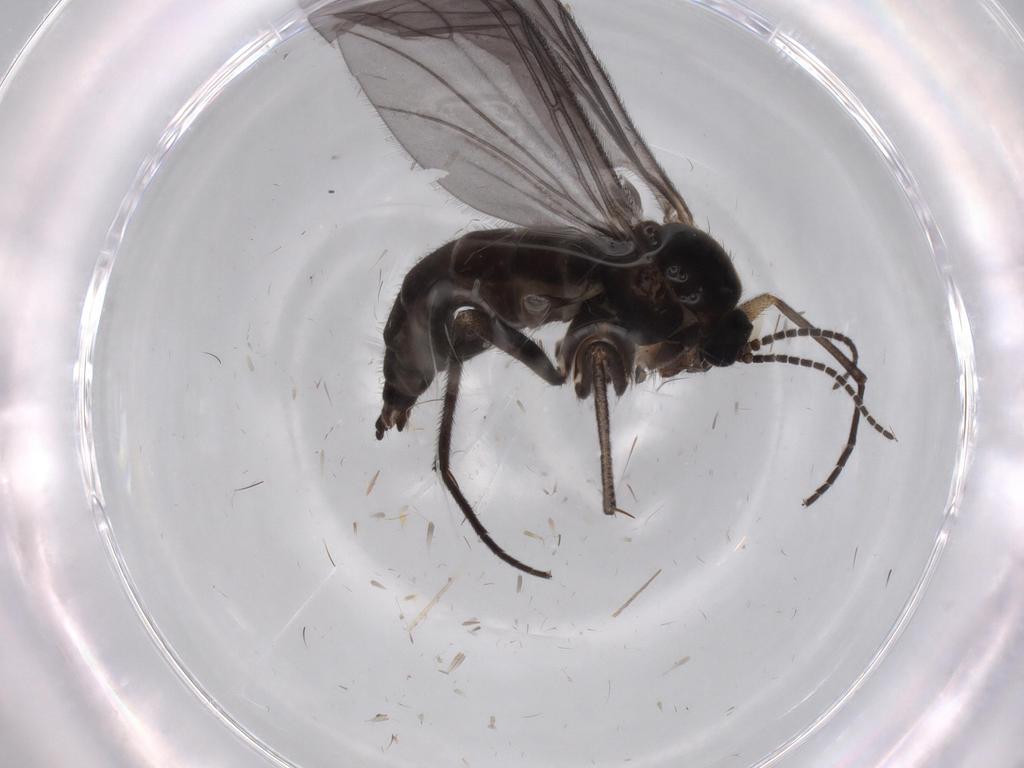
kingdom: Animalia
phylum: Arthropoda
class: Insecta
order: Diptera
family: Sciaridae
